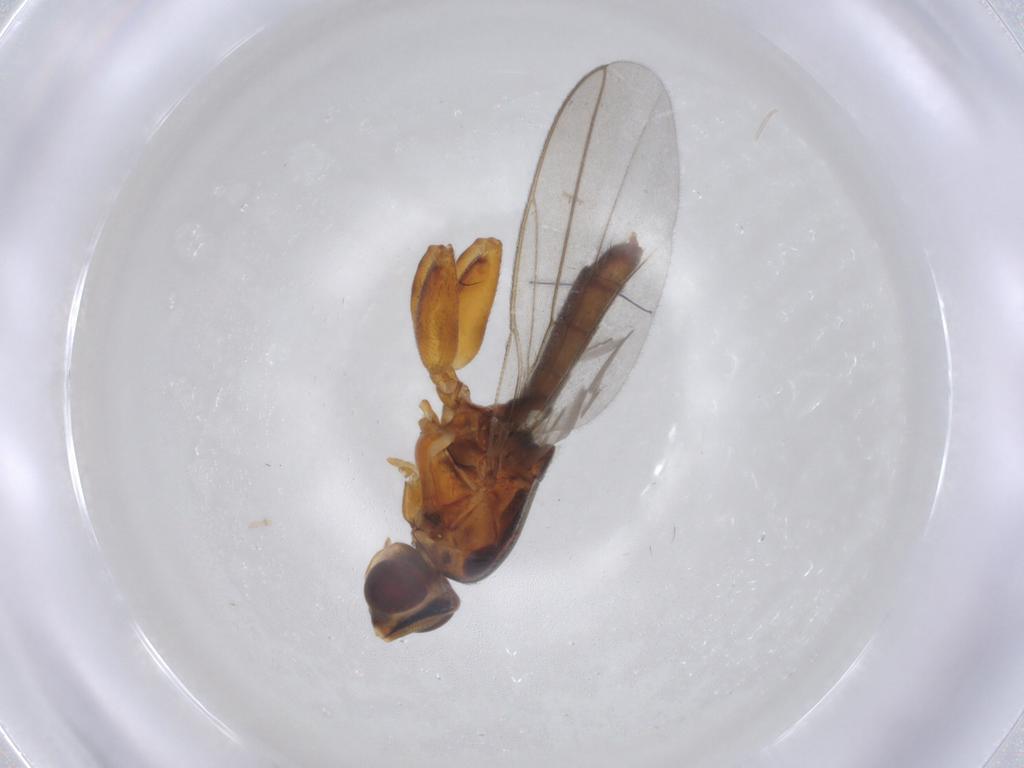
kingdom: Animalia
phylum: Arthropoda
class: Insecta
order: Diptera
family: Chloropidae
